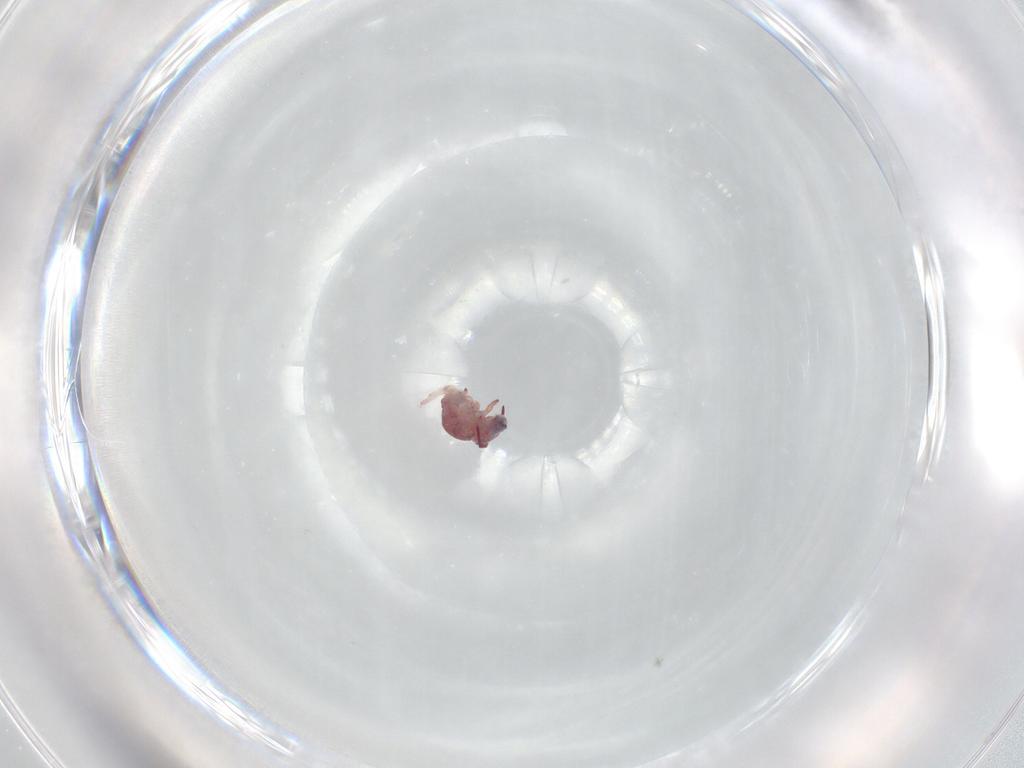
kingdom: Animalia
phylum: Arthropoda
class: Collembola
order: Symphypleona
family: Sminthurididae
